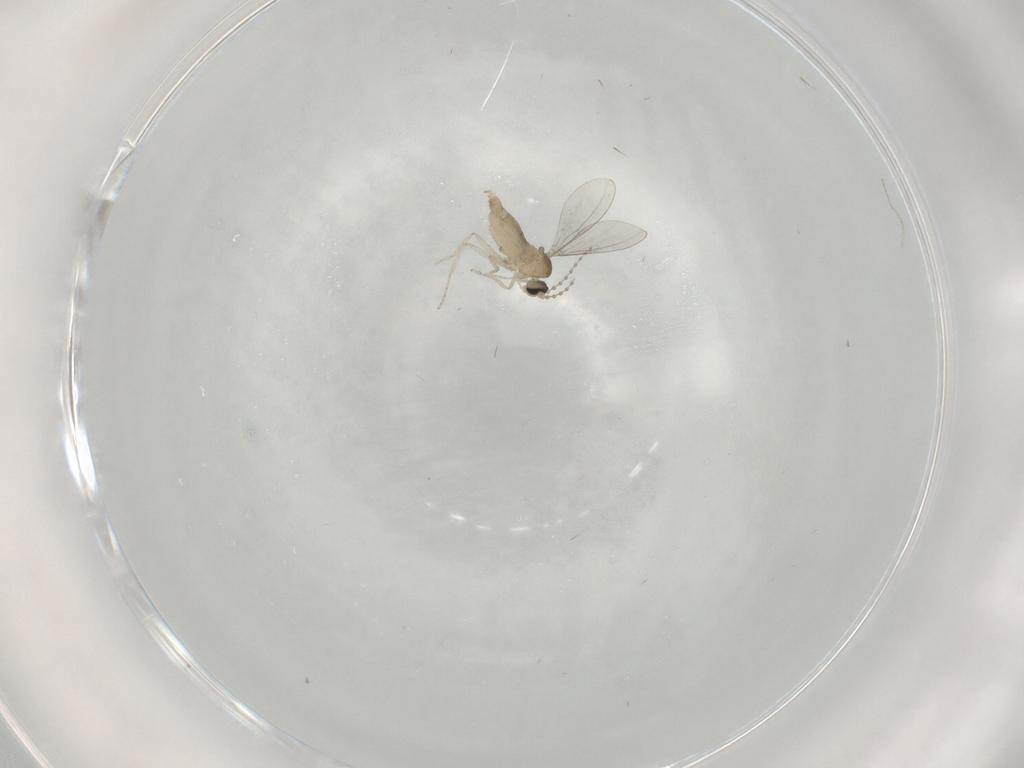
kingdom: Animalia
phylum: Arthropoda
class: Insecta
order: Diptera
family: Cecidomyiidae
